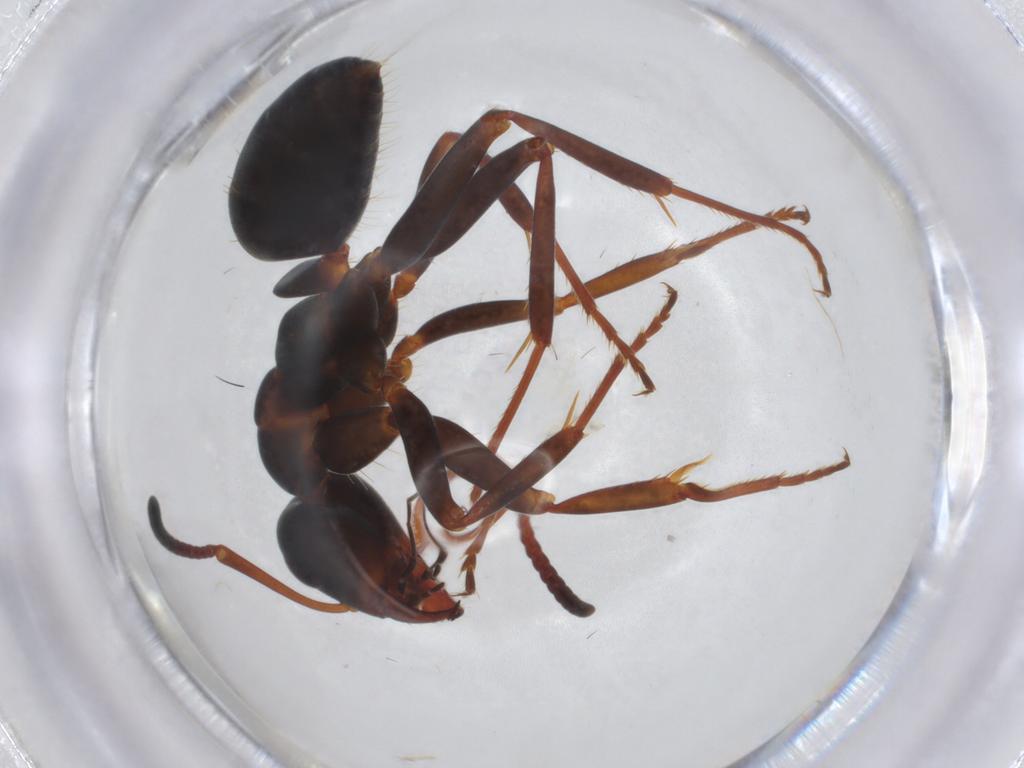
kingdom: Animalia
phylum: Arthropoda
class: Insecta
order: Hymenoptera
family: Formicidae
